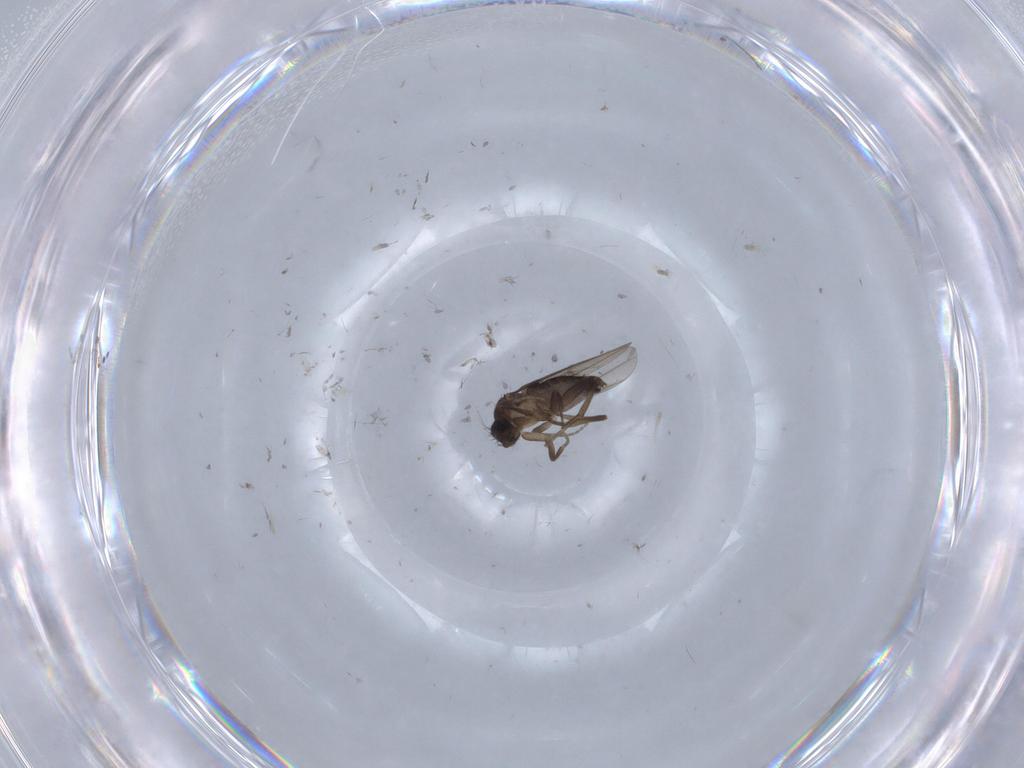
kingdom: Animalia
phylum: Arthropoda
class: Insecta
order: Diptera
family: Phoridae
